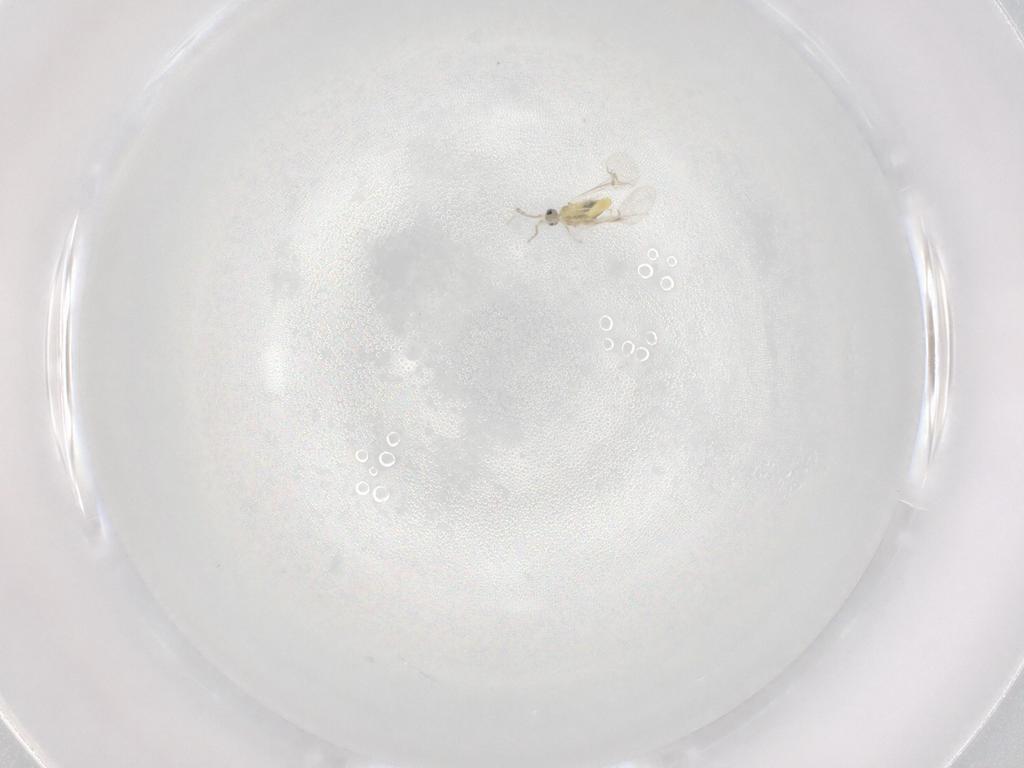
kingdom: Animalia
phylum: Arthropoda
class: Insecta
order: Diptera
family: Cecidomyiidae
